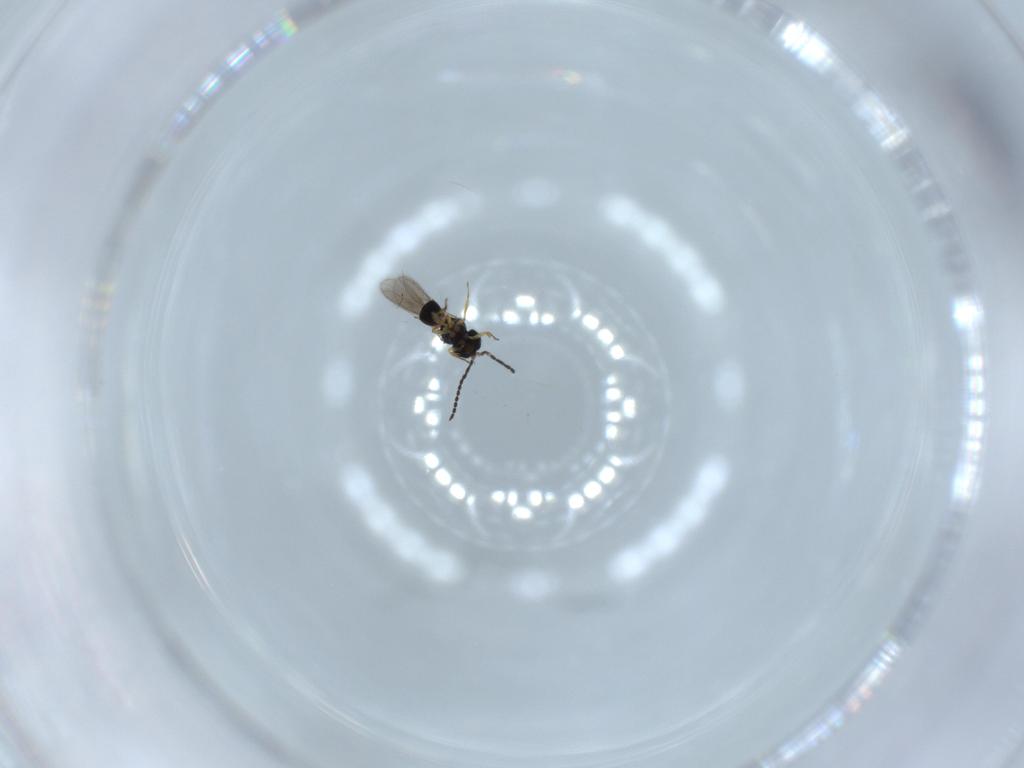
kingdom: Animalia
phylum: Arthropoda
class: Insecta
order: Hymenoptera
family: Scelionidae
